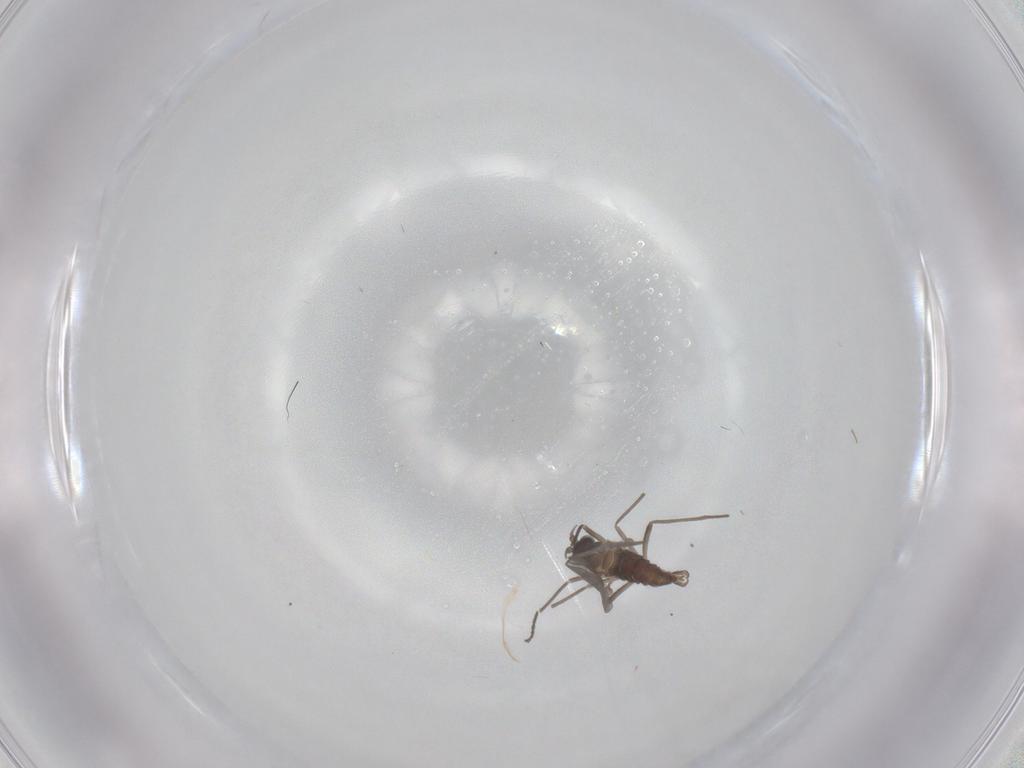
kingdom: Animalia
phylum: Arthropoda
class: Insecta
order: Diptera
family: Cecidomyiidae
